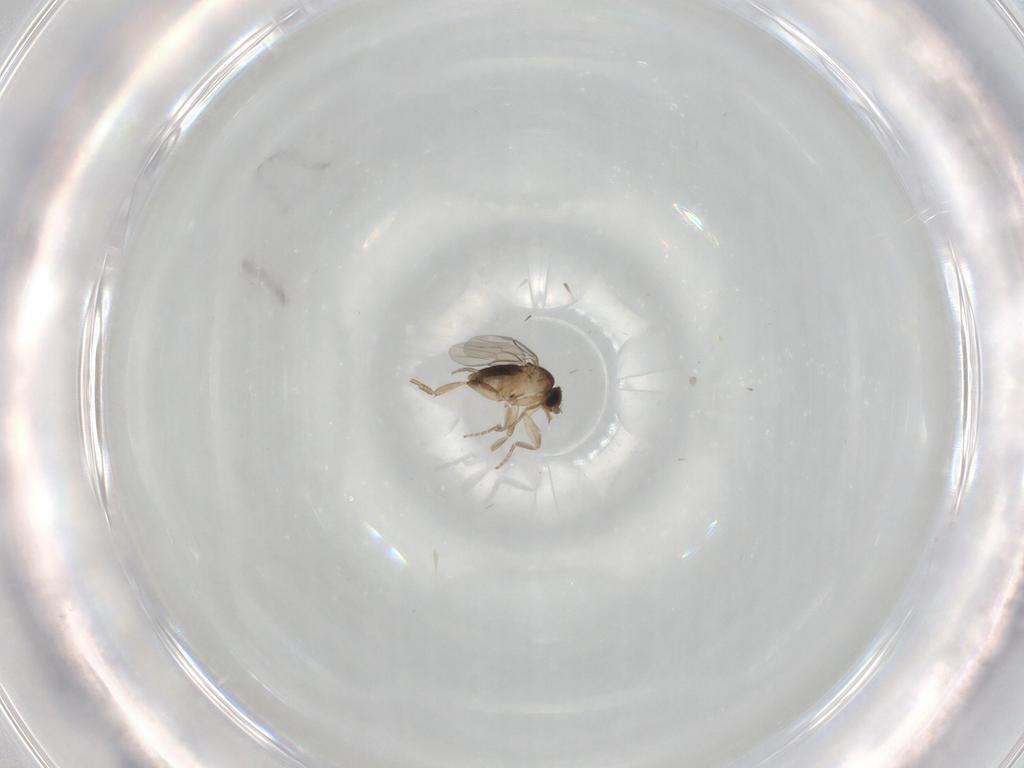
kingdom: Animalia
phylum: Arthropoda
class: Insecta
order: Diptera
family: Phoridae
